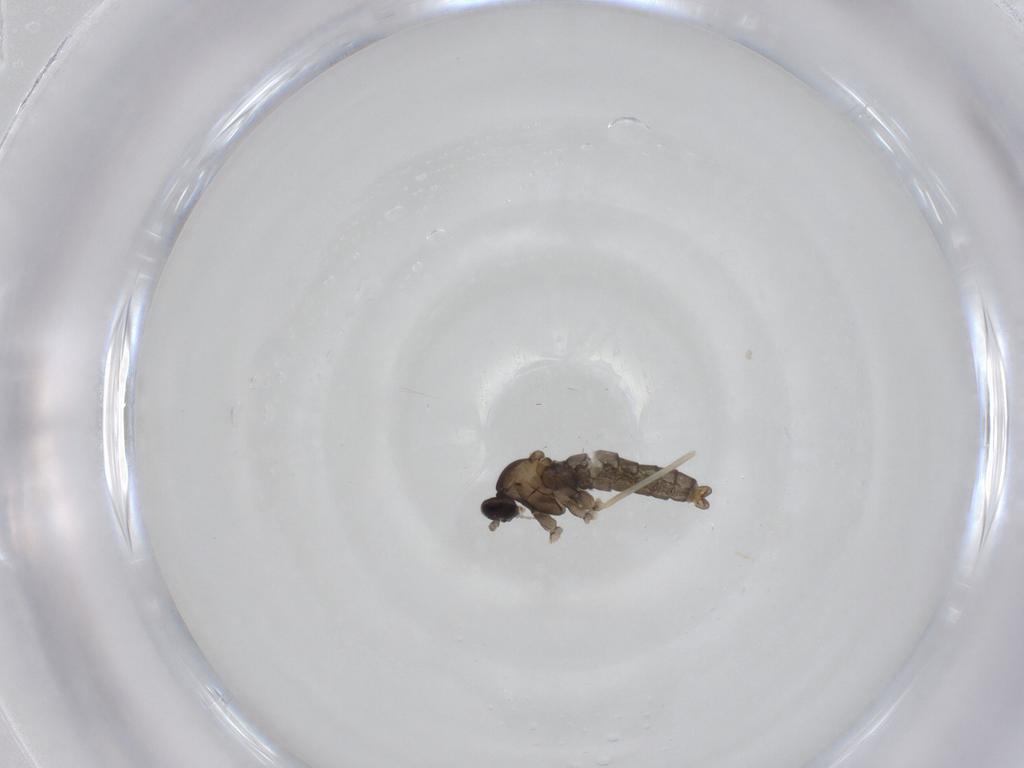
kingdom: Animalia
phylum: Arthropoda
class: Insecta
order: Diptera
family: Cecidomyiidae
